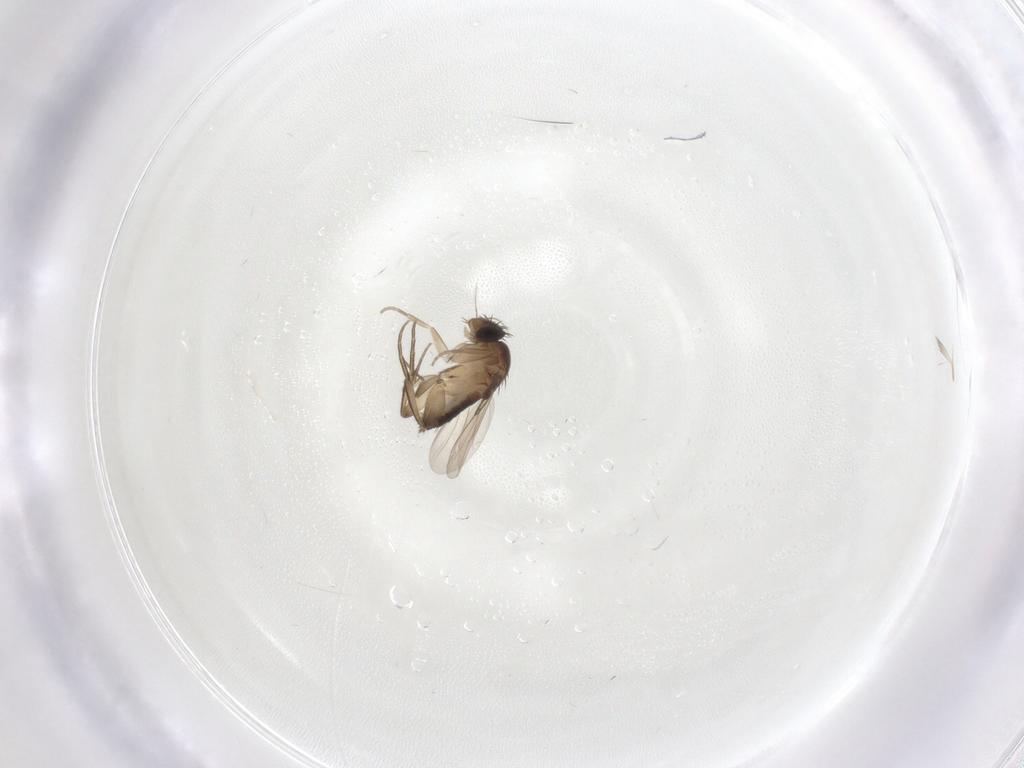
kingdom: Animalia
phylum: Arthropoda
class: Insecta
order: Diptera
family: Phoridae
